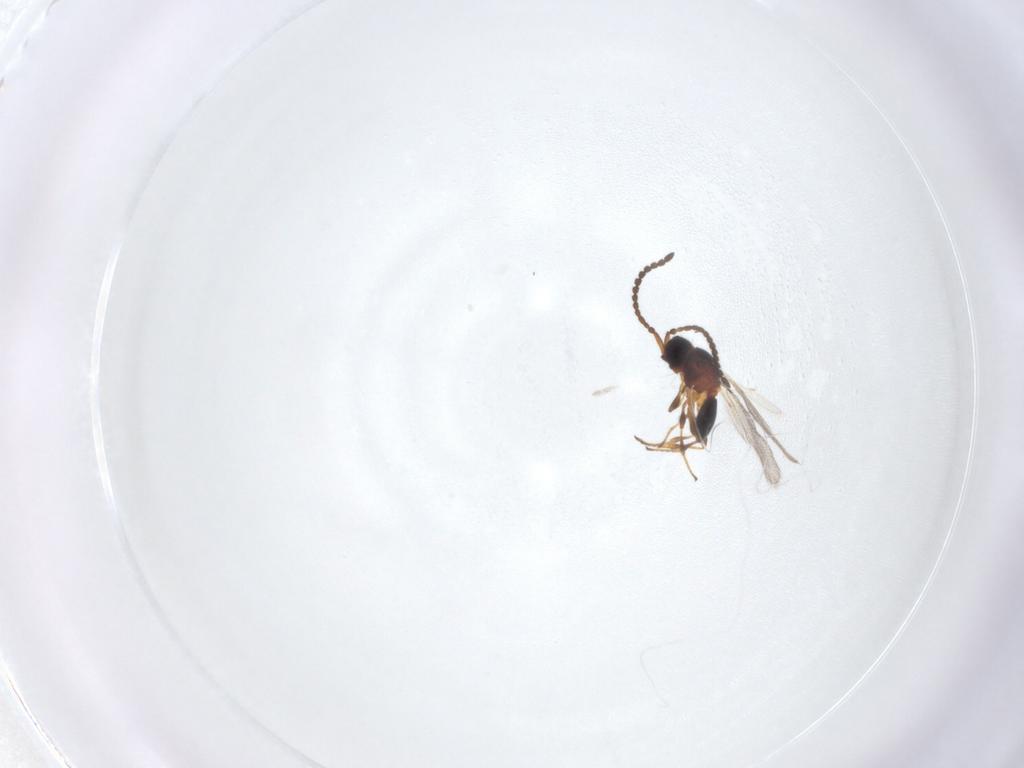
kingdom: Animalia
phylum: Arthropoda
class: Insecta
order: Hymenoptera
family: Diapriidae
